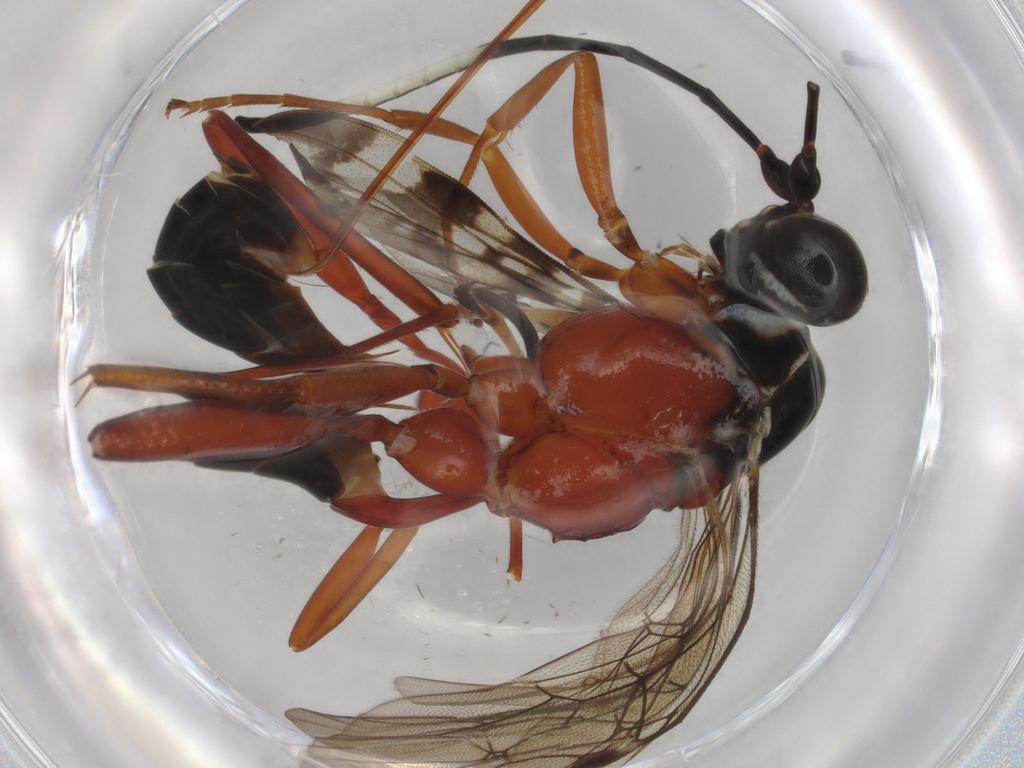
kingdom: Animalia
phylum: Arthropoda
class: Insecta
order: Hymenoptera
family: Ichneumonidae
